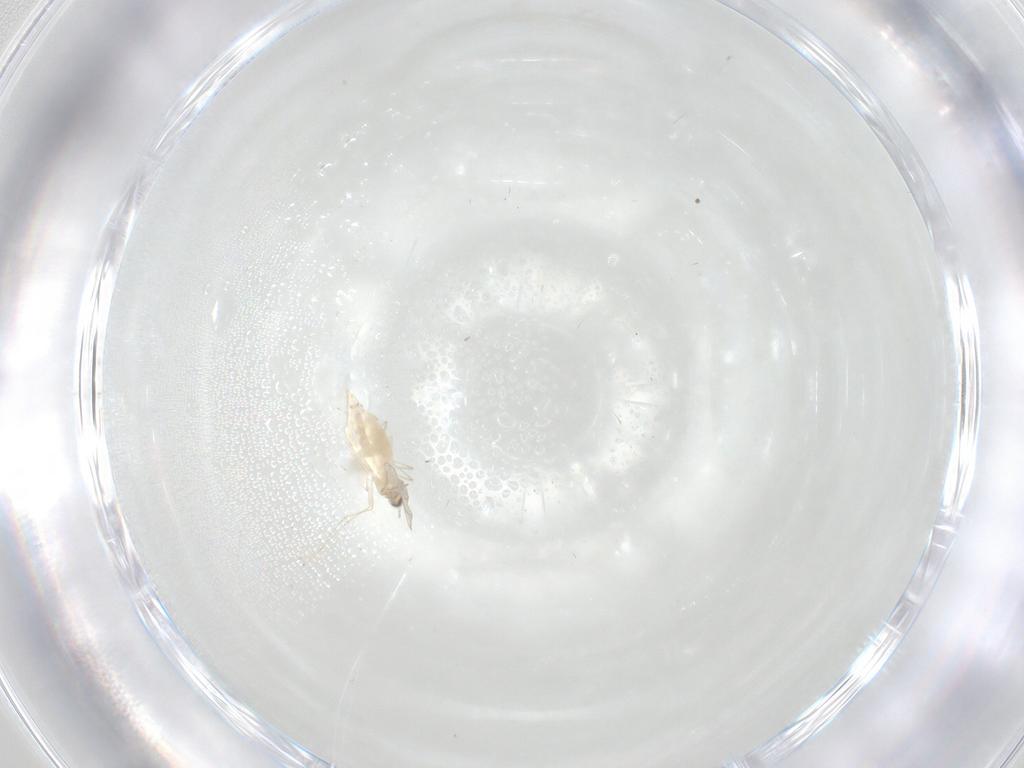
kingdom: Animalia
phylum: Arthropoda
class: Insecta
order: Diptera
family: Cecidomyiidae
